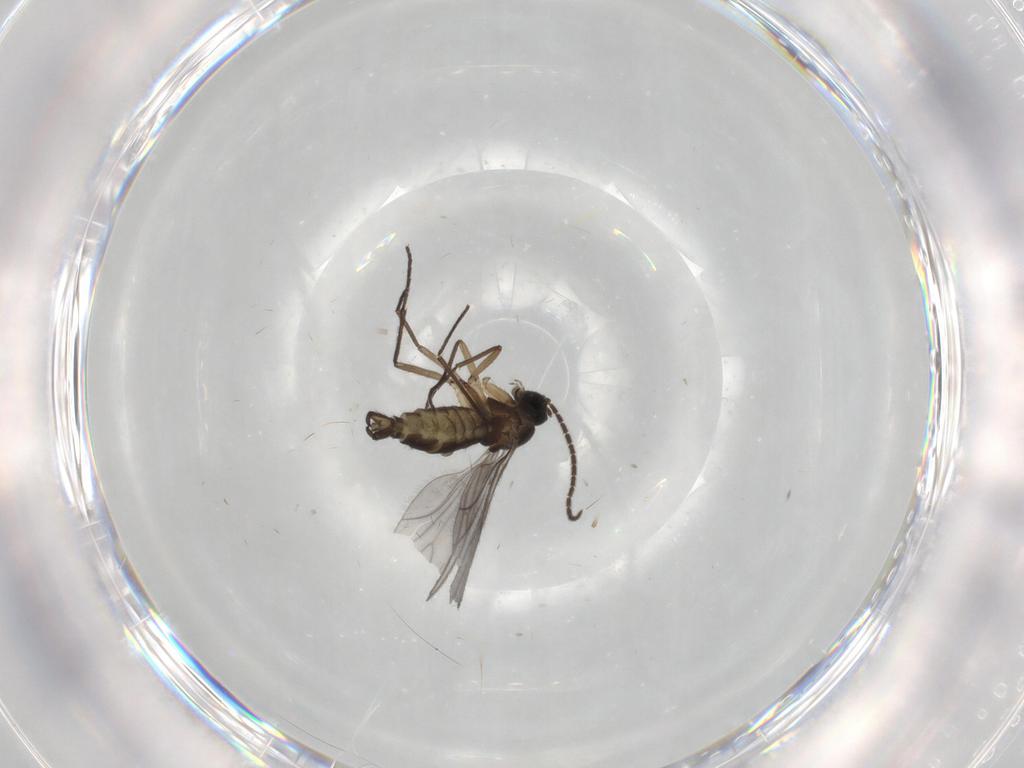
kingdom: Animalia
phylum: Arthropoda
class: Insecta
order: Diptera
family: Sciaridae
